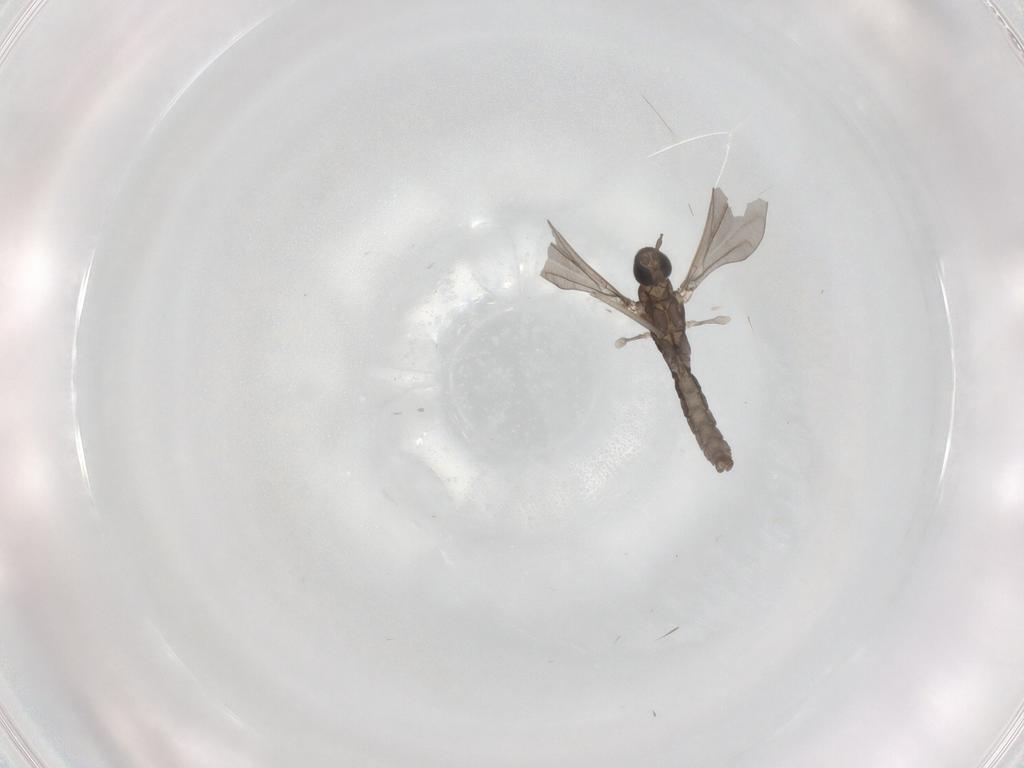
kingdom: Animalia
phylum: Arthropoda
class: Insecta
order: Diptera
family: Cecidomyiidae
